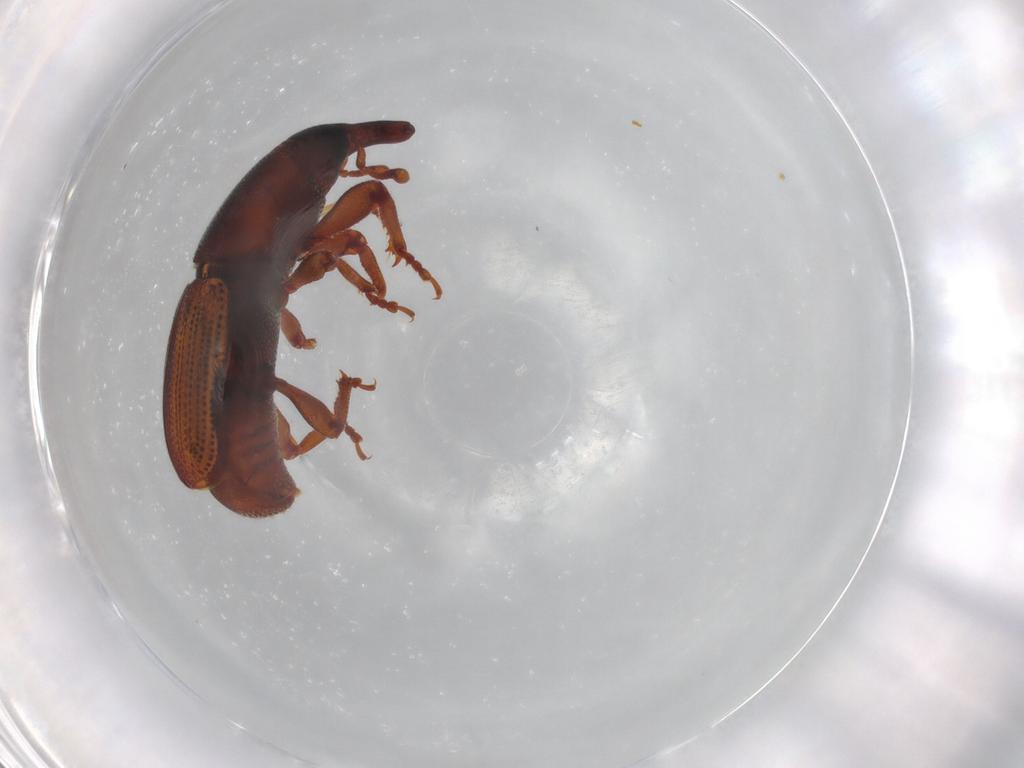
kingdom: Animalia
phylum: Arthropoda
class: Insecta
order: Coleoptera
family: Curculionidae
